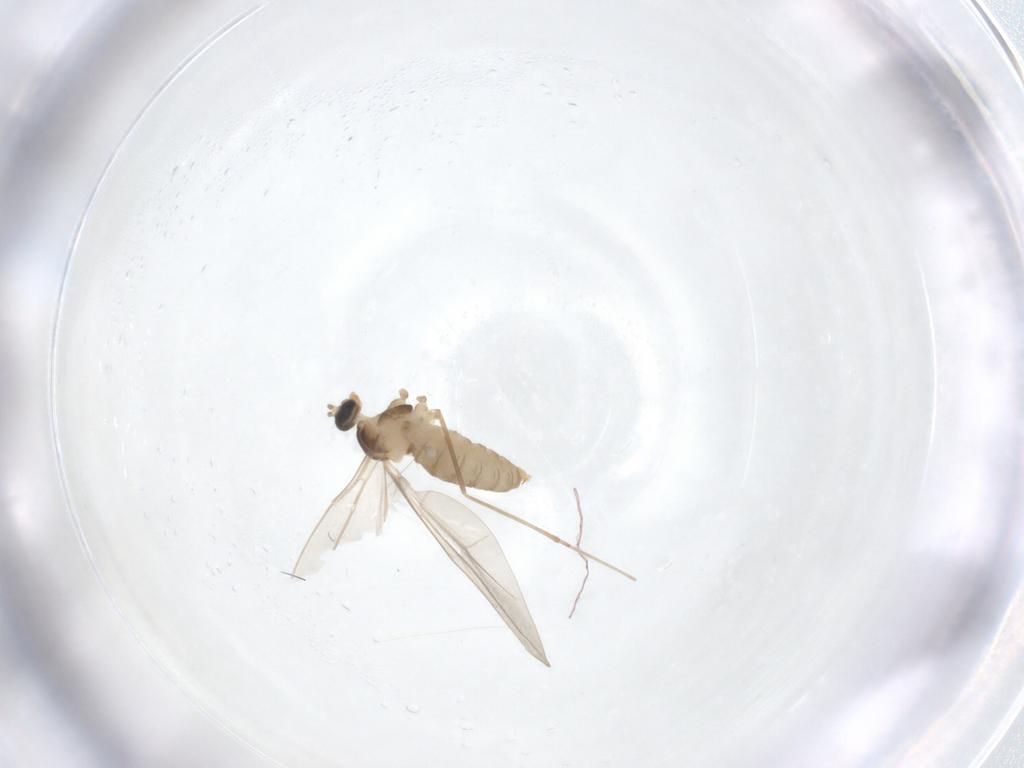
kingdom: Animalia
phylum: Arthropoda
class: Insecta
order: Diptera
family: Cecidomyiidae
